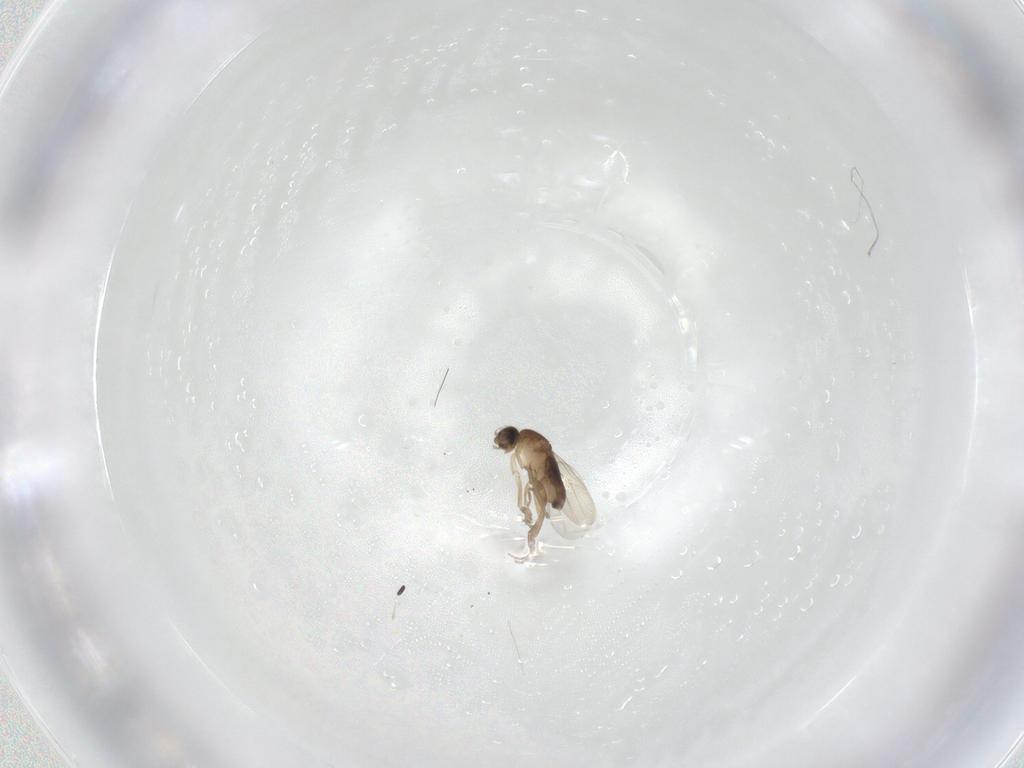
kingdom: Animalia
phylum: Arthropoda
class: Insecta
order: Diptera
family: Phoridae
